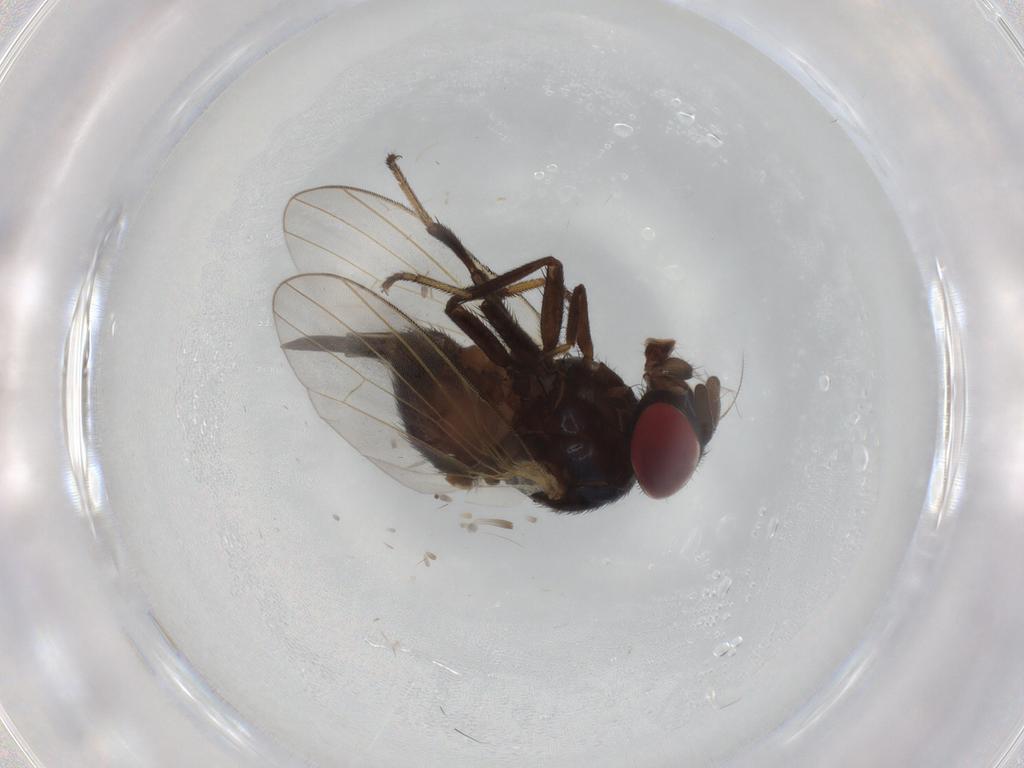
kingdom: Animalia
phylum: Arthropoda
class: Insecta
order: Diptera
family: Lonchaeidae
